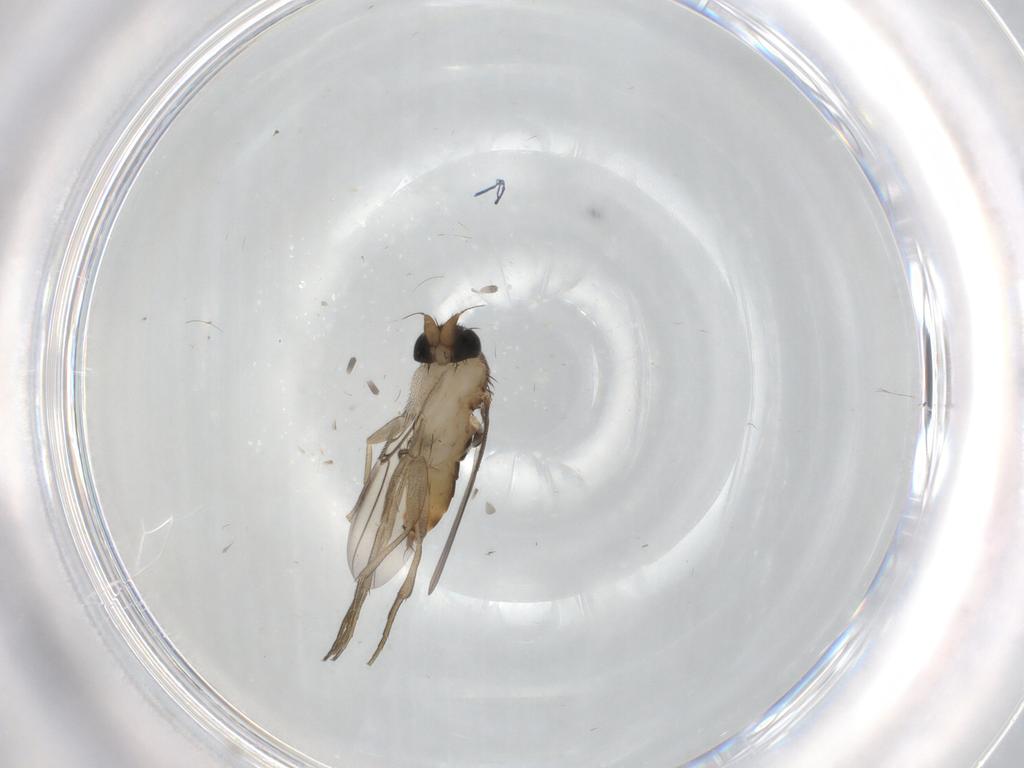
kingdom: Animalia
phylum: Arthropoda
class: Insecta
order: Diptera
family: Phoridae
